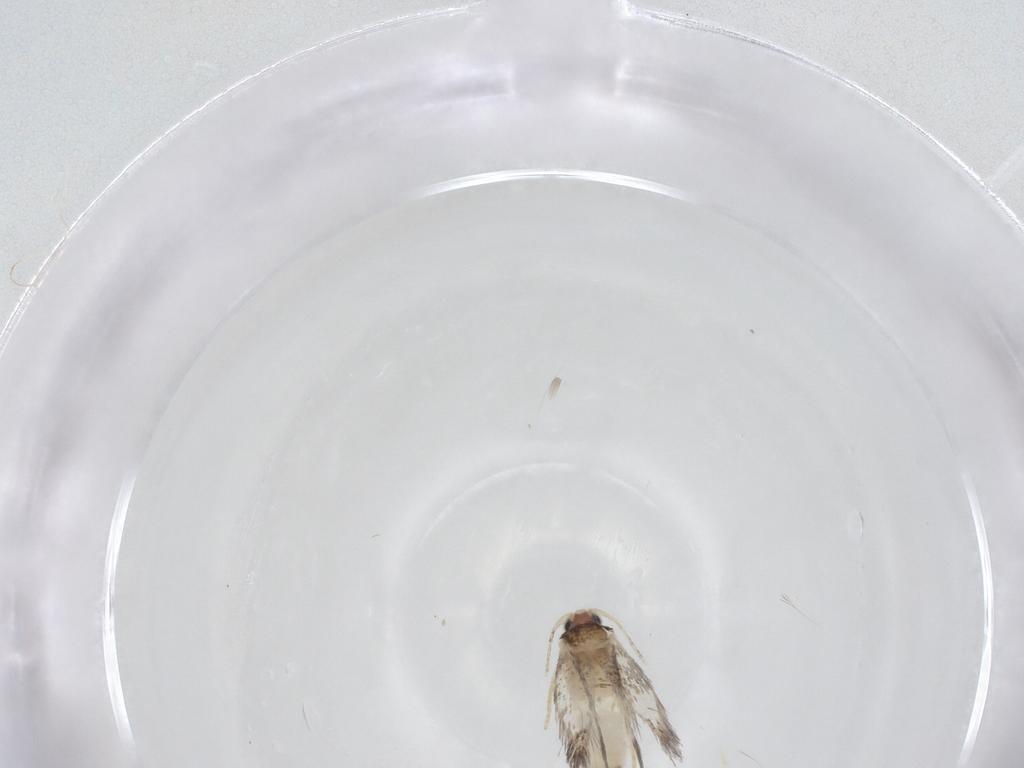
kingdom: Animalia
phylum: Arthropoda
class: Insecta
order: Lepidoptera
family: Nepticulidae
